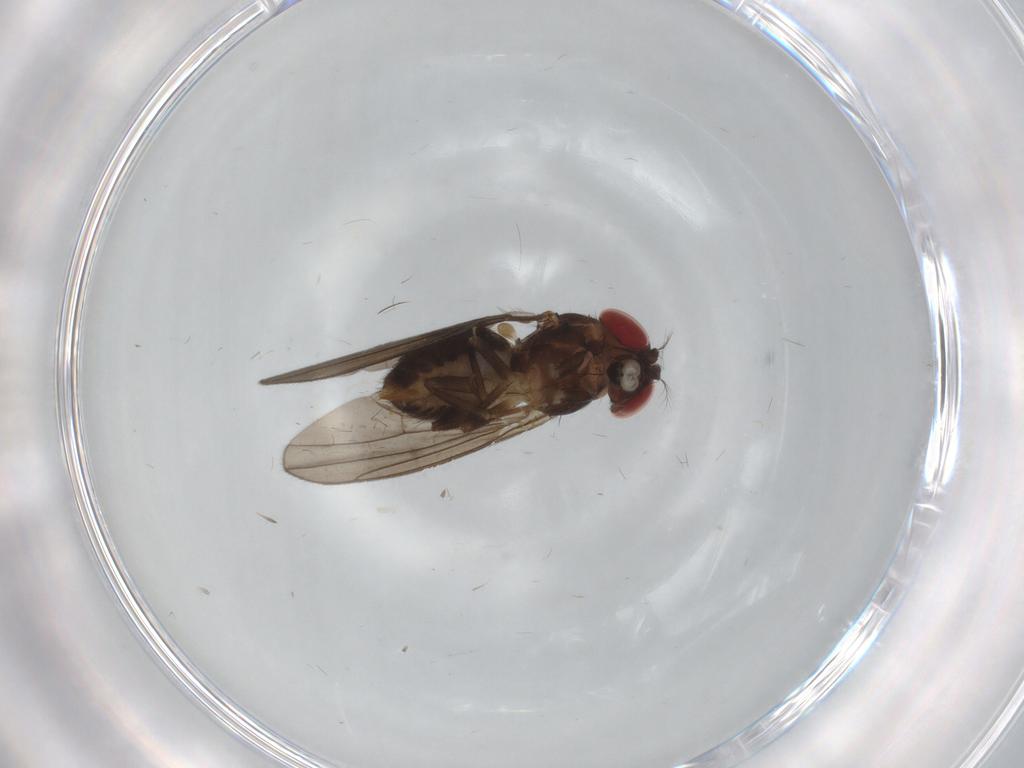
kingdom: Animalia
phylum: Arthropoda
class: Insecta
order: Diptera
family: Drosophilidae
